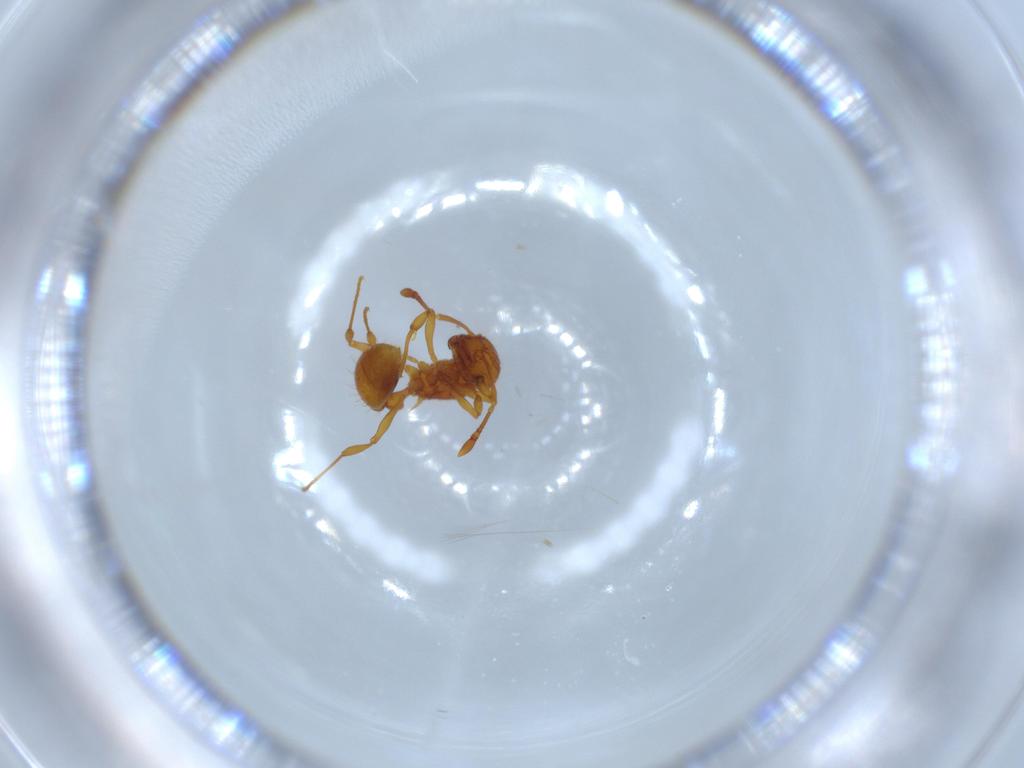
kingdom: Animalia
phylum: Arthropoda
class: Insecta
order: Hymenoptera
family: Formicidae
